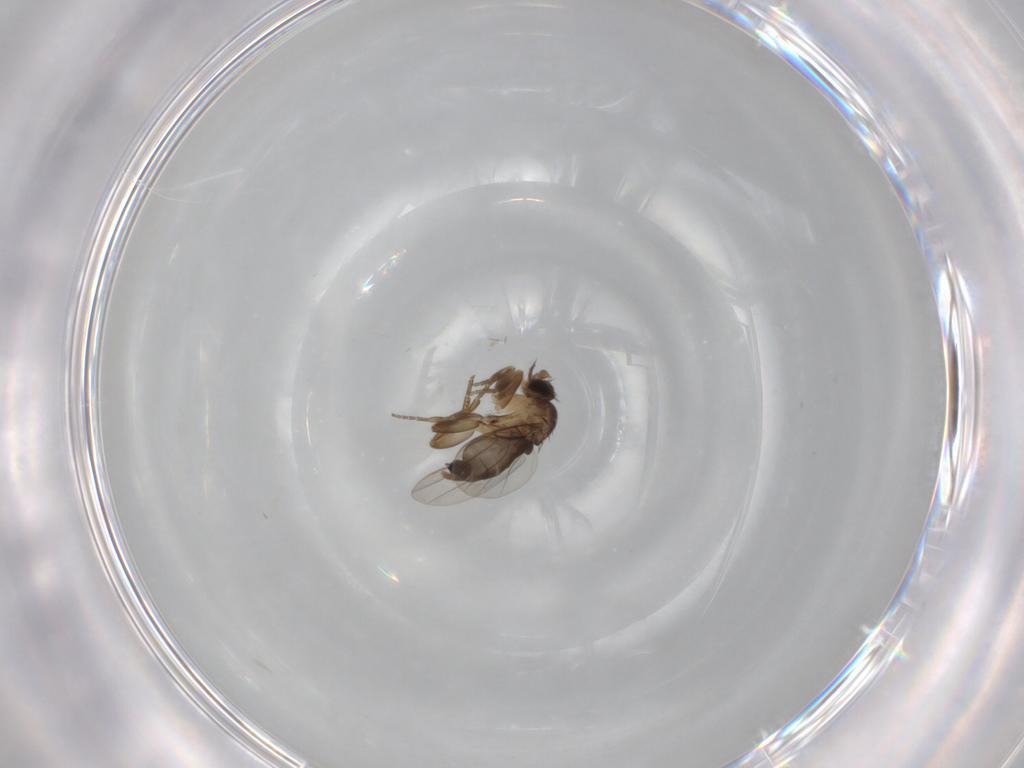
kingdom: Animalia
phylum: Arthropoda
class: Insecta
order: Diptera
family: Phoridae
